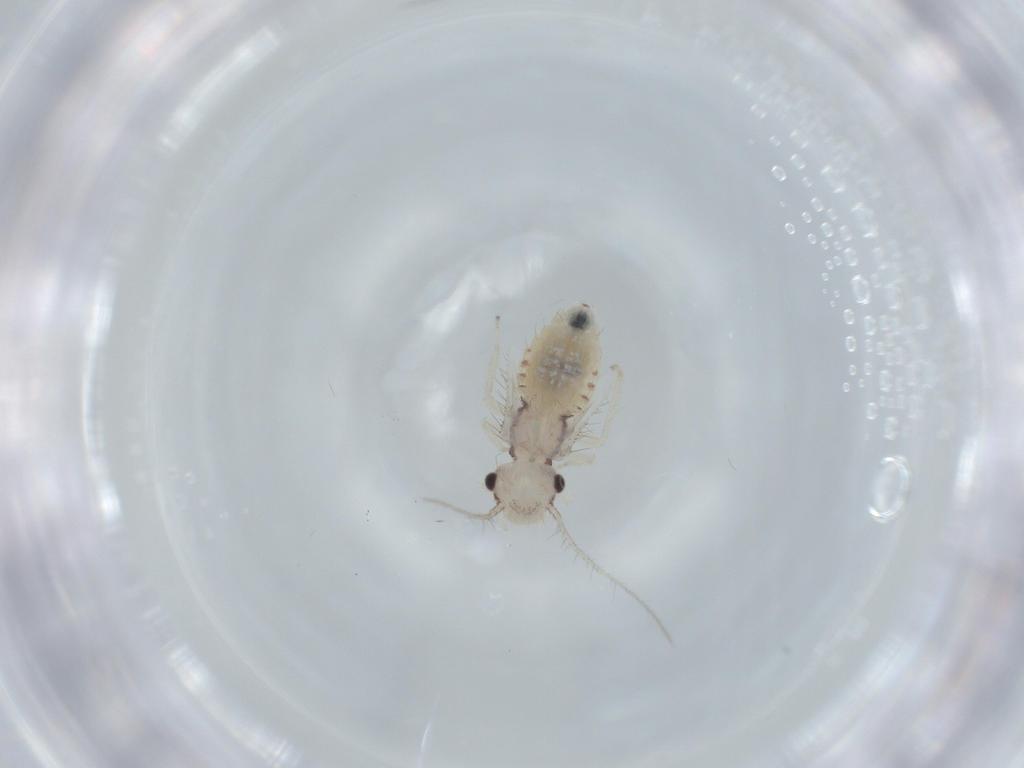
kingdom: Animalia
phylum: Arthropoda
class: Insecta
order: Psocodea
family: Pseudocaeciliidae
